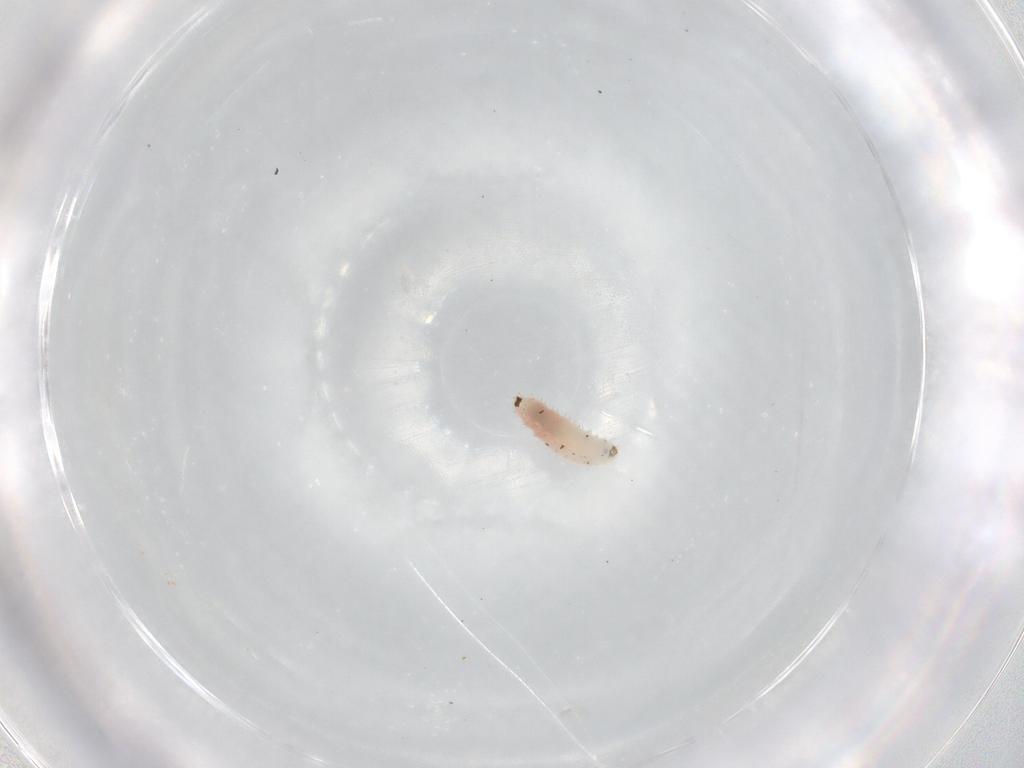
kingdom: Animalia
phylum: Arthropoda
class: Insecta
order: Diptera
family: Cecidomyiidae
